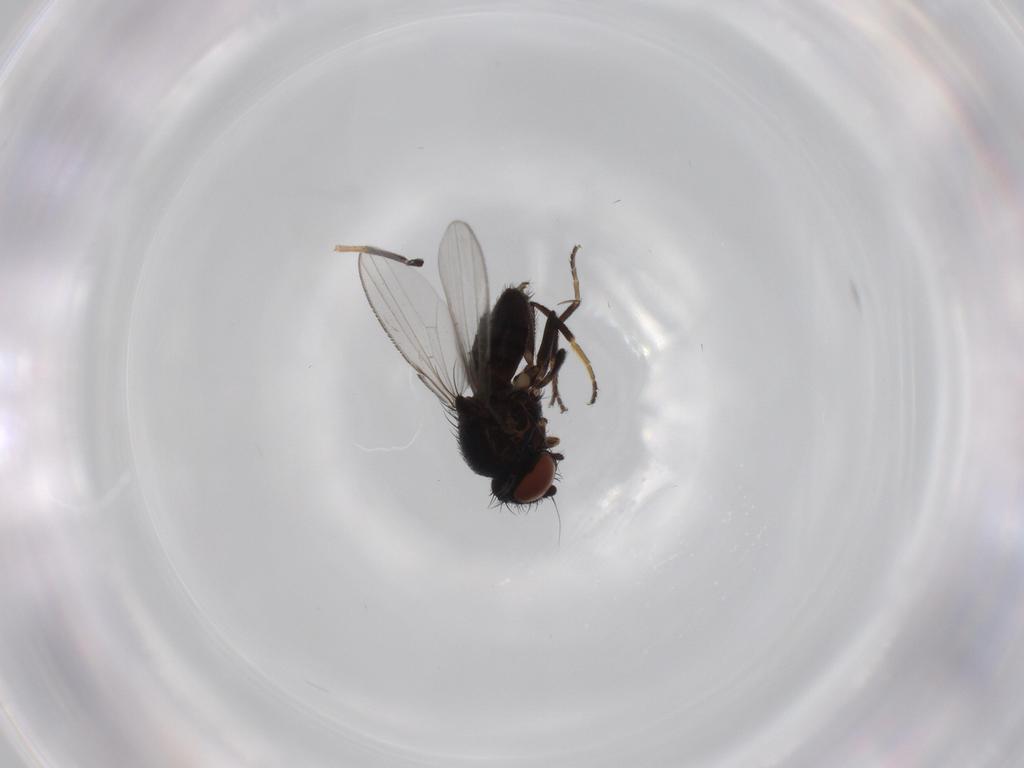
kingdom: Animalia
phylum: Arthropoda
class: Insecta
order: Diptera
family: Milichiidae
